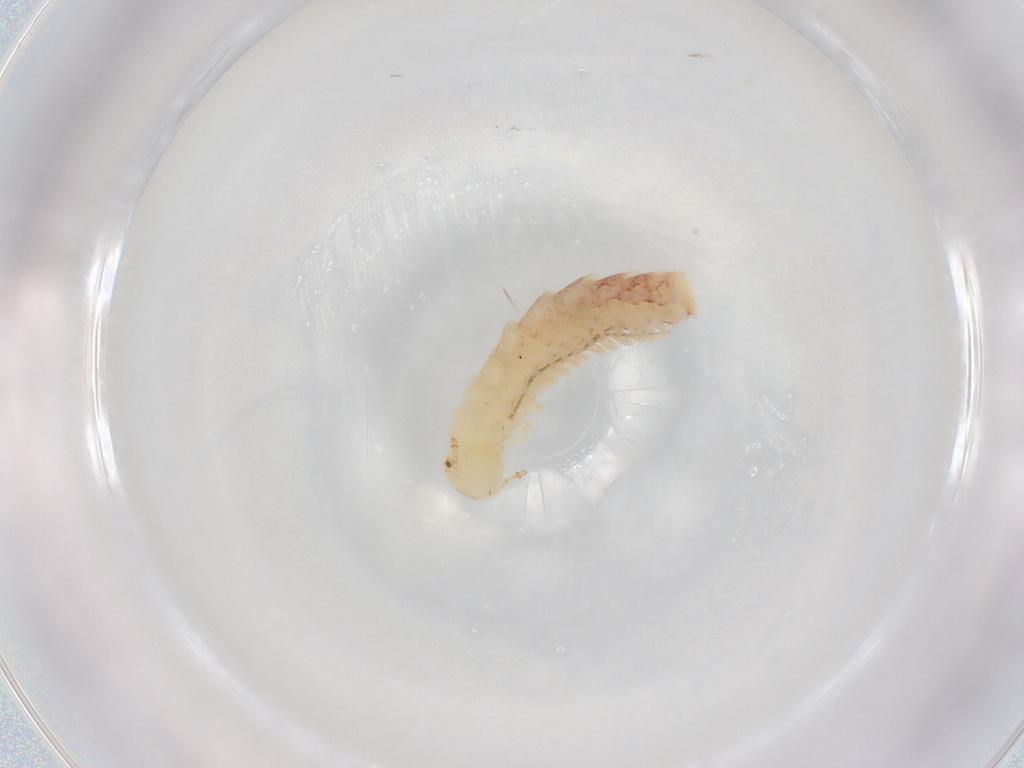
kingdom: Animalia
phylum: Arthropoda
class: Diplopoda
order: Polyxenida
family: Polyxenidae
